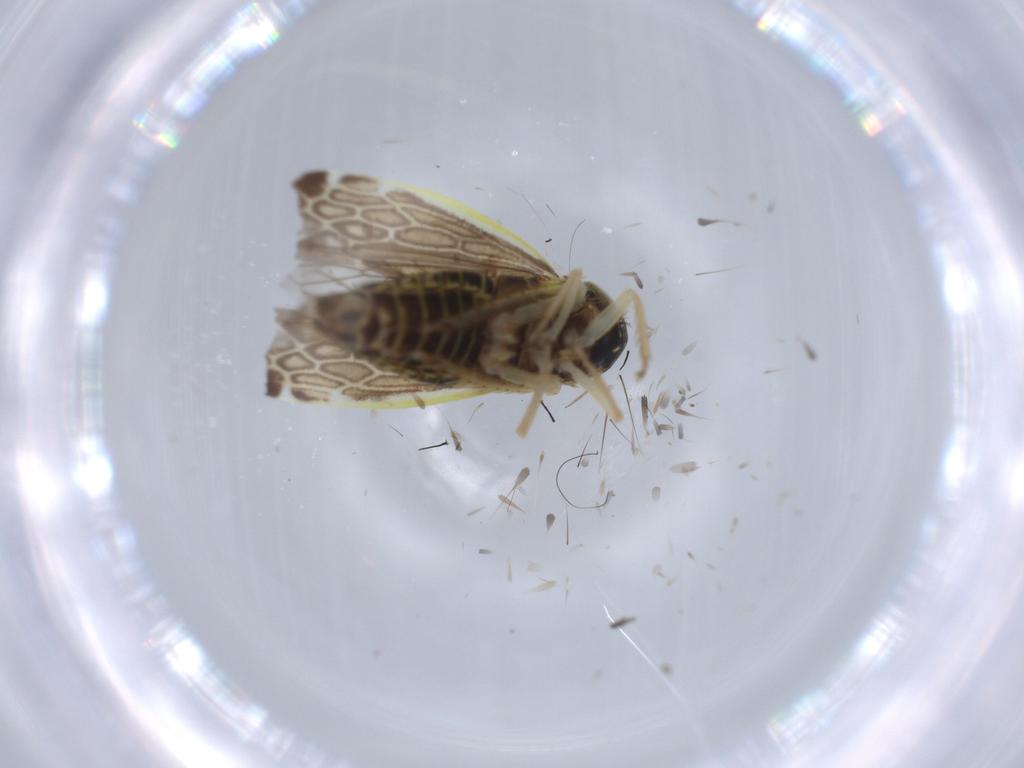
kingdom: Animalia
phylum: Arthropoda
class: Insecta
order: Hemiptera
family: Cicadellidae
